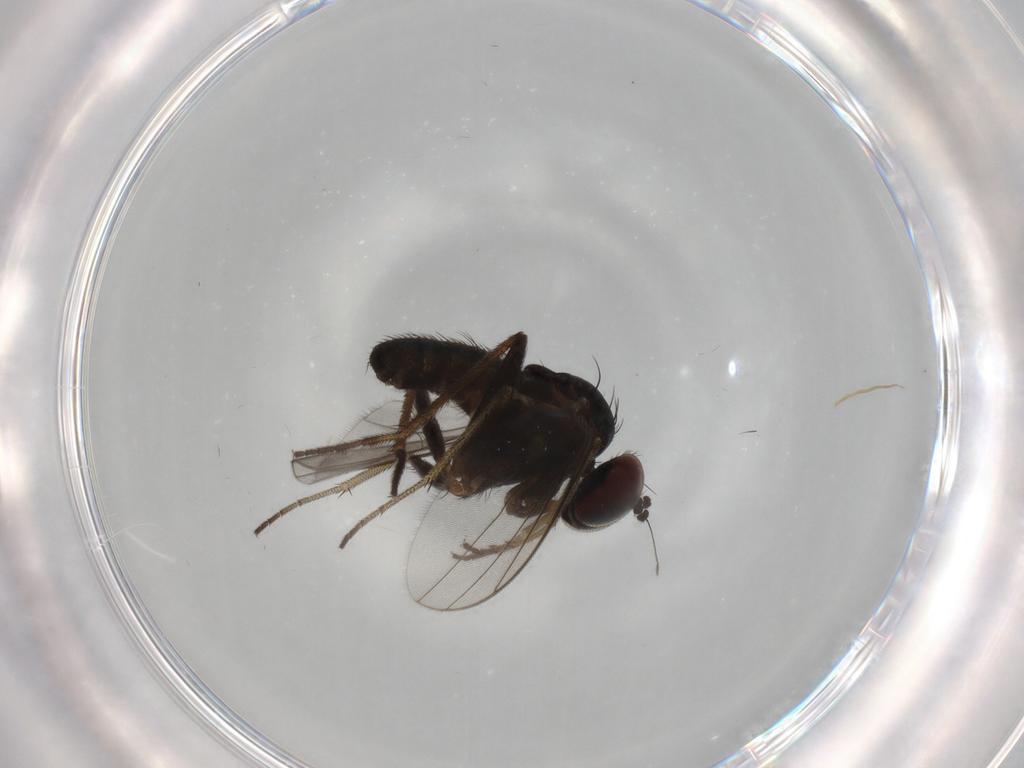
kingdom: Animalia
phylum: Arthropoda
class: Insecta
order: Diptera
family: Dolichopodidae
